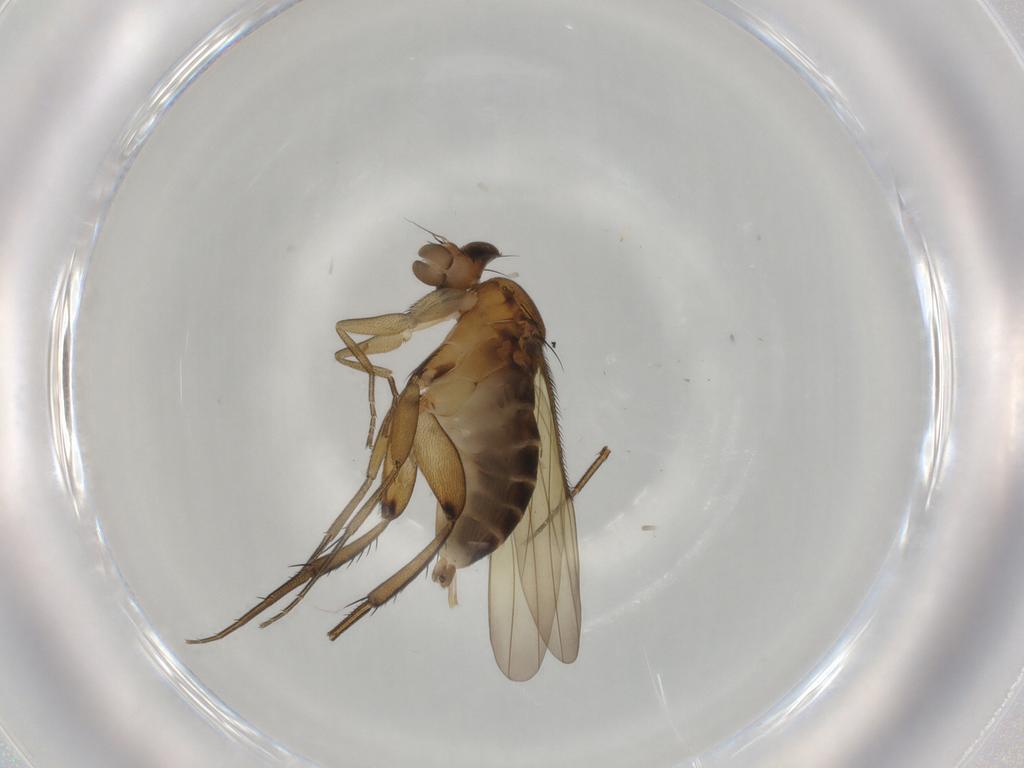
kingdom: Animalia
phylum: Arthropoda
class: Insecta
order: Diptera
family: Phoridae
